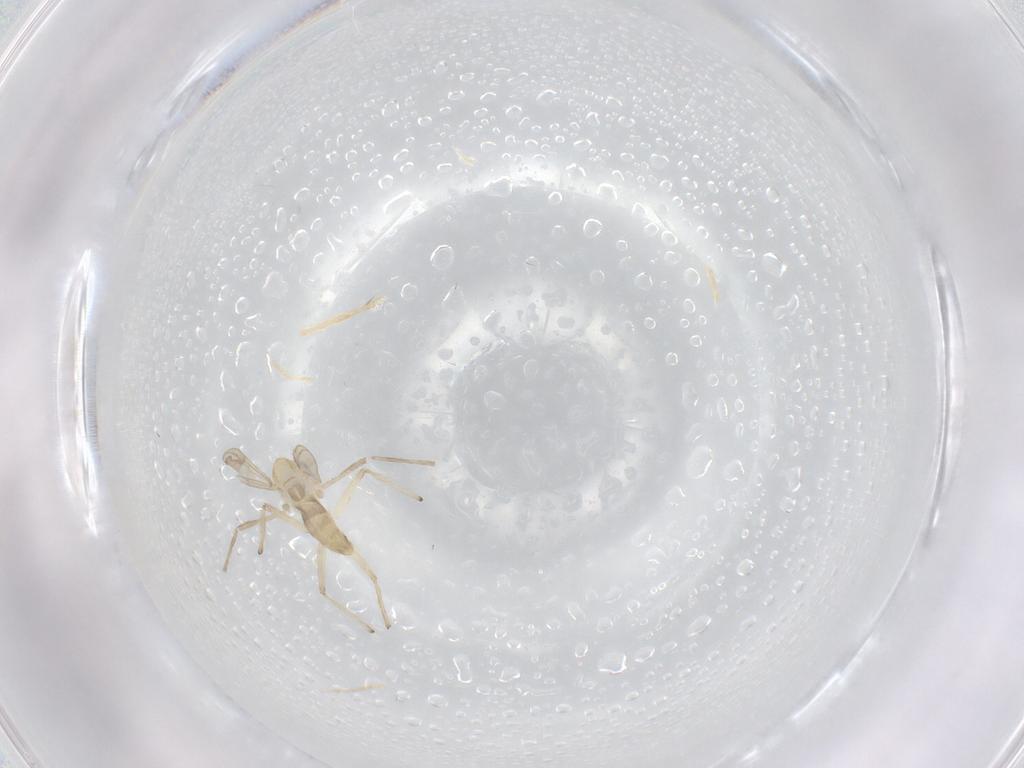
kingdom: Animalia
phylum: Arthropoda
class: Insecta
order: Diptera
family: Chironomidae
